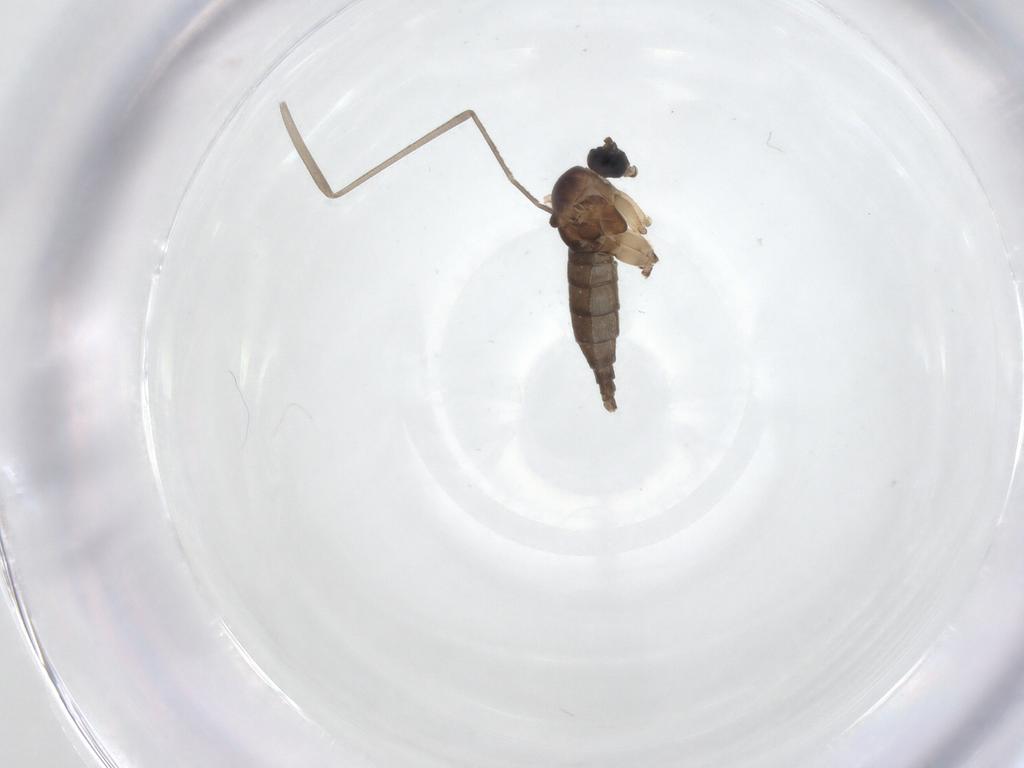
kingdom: Animalia
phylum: Arthropoda
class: Insecta
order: Diptera
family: Sciaridae
